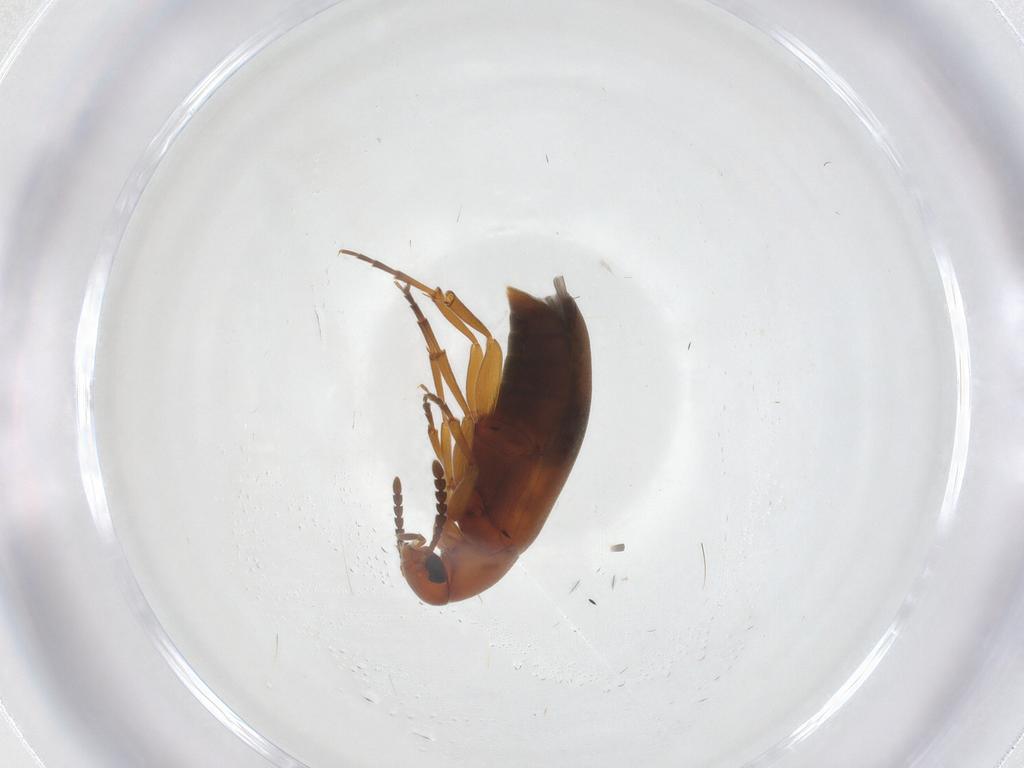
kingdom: Animalia
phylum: Arthropoda
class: Insecta
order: Coleoptera
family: Scraptiidae
